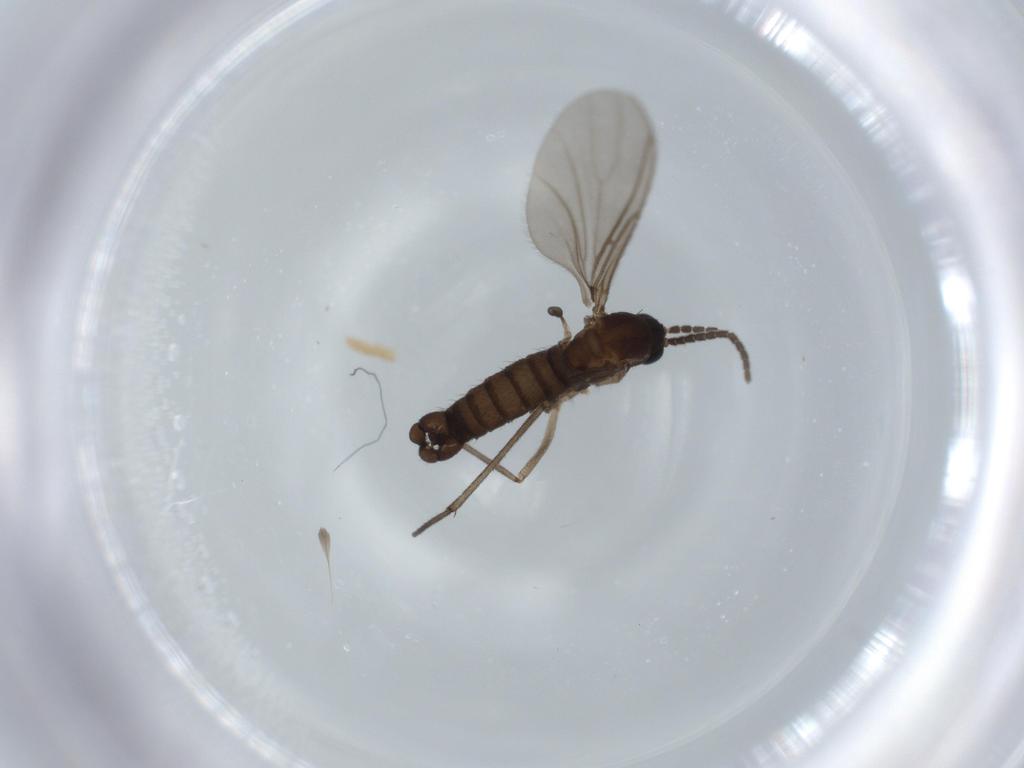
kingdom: Animalia
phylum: Arthropoda
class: Insecta
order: Diptera
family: Sciaridae
